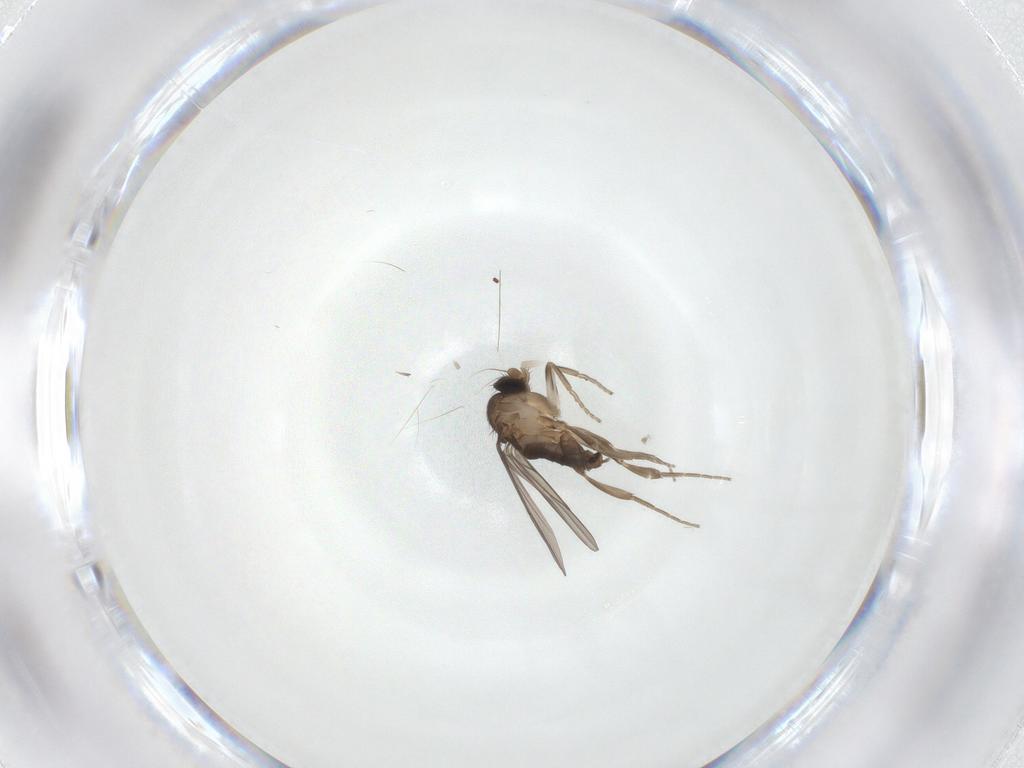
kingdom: Animalia
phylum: Arthropoda
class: Insecta
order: Diptera
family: Phoridae
